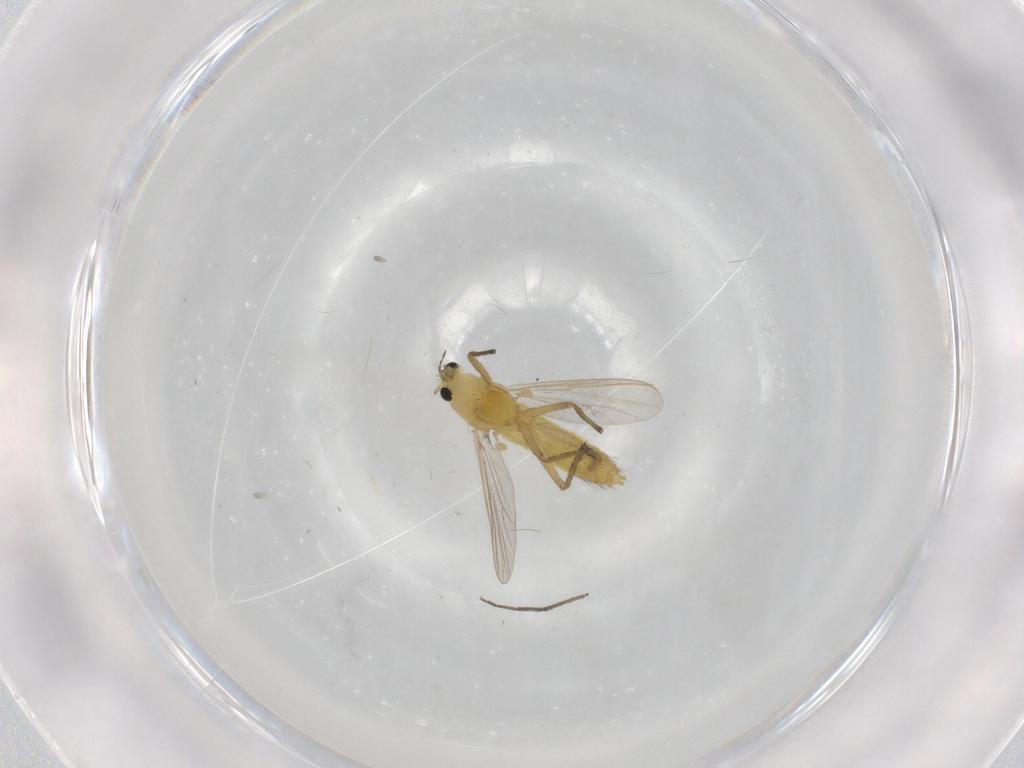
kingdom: Animalia
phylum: Arthropoda
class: Insecta
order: Diptera
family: Chironomidae
